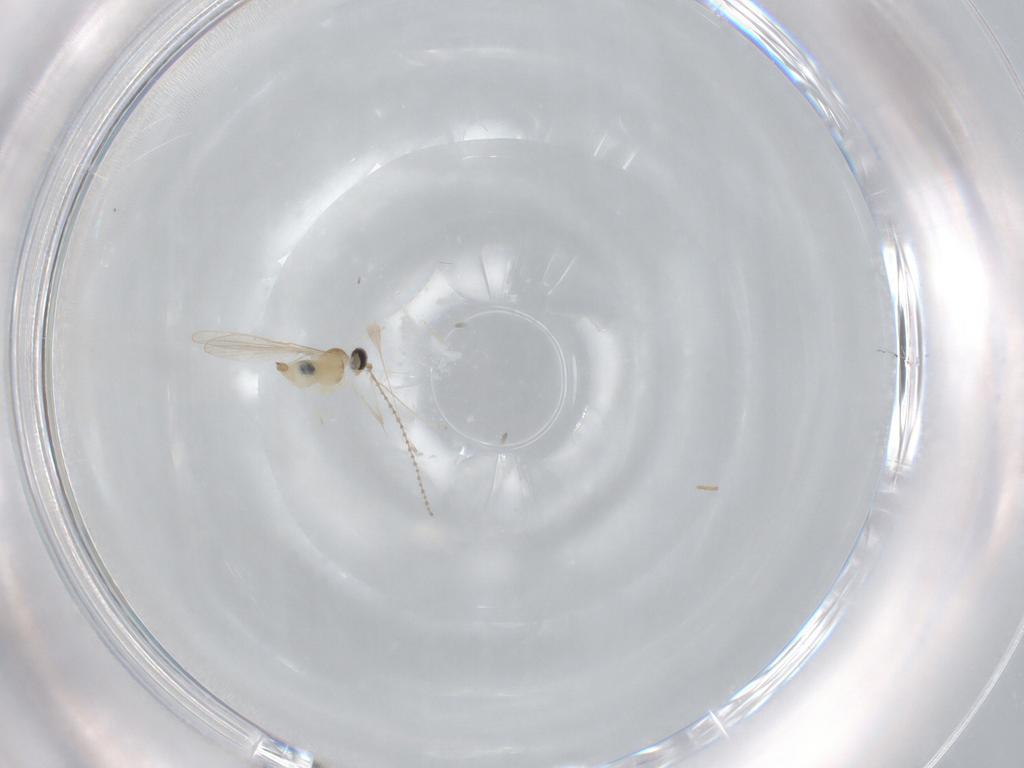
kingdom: Animalia
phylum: Arthropoda
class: Insecta
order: Diptera
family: Cecidomyiidae
